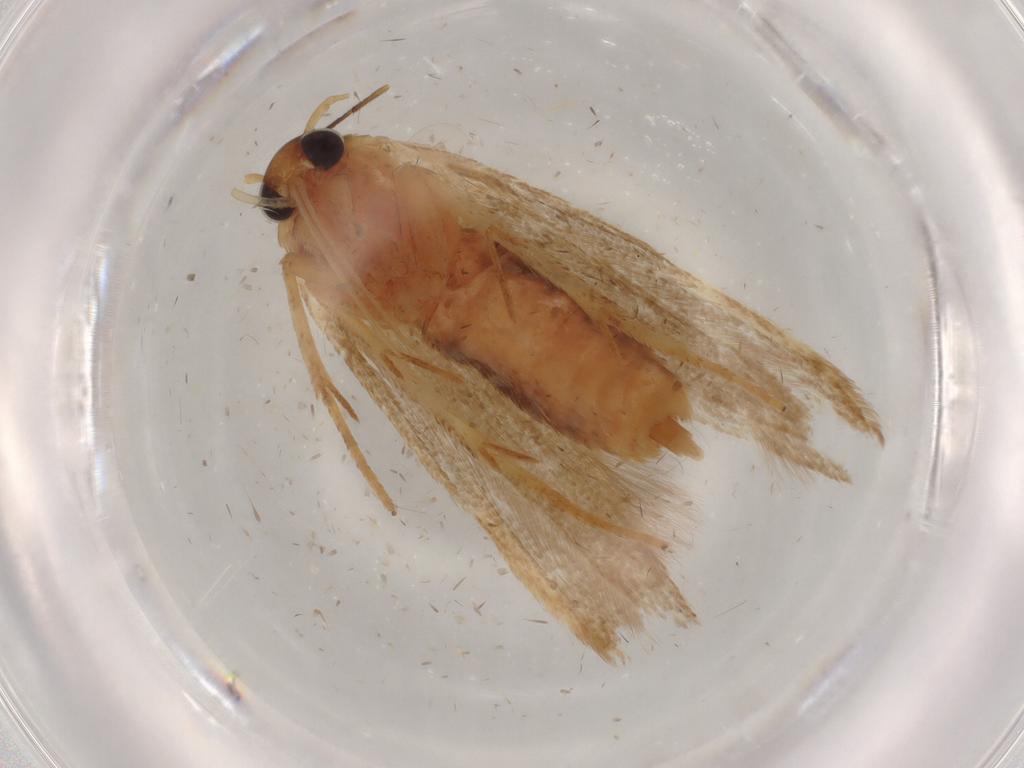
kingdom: Animalia
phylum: Arthropoda
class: Insecta
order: Lepidoptera
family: Blastobasidae
